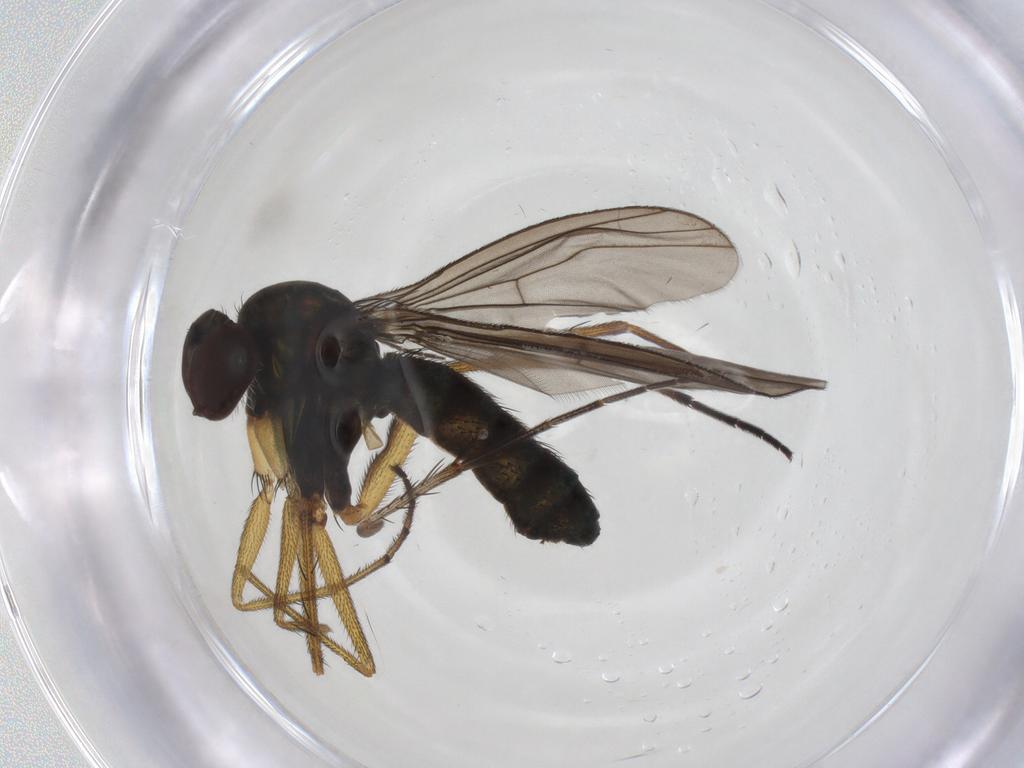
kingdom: Animalia
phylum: Arthropoda
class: Insecta
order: Diptera
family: Chironomidae
